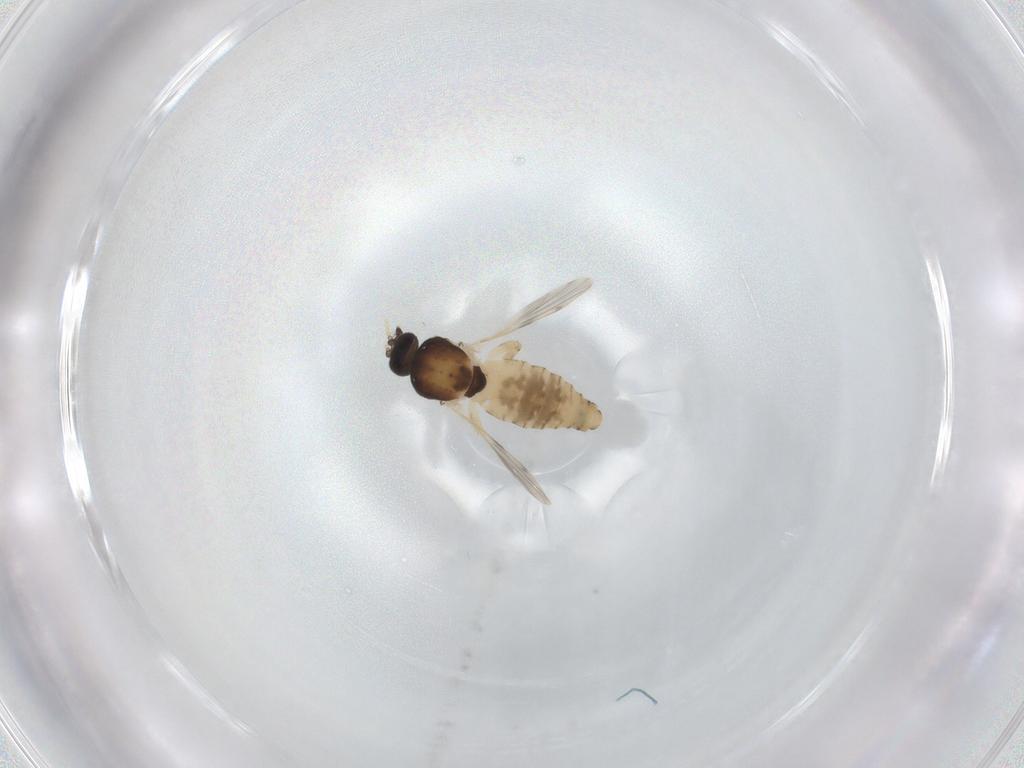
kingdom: Animalia
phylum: Arthropoda
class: Insecta
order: Diptera
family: Ceratopogonidae
